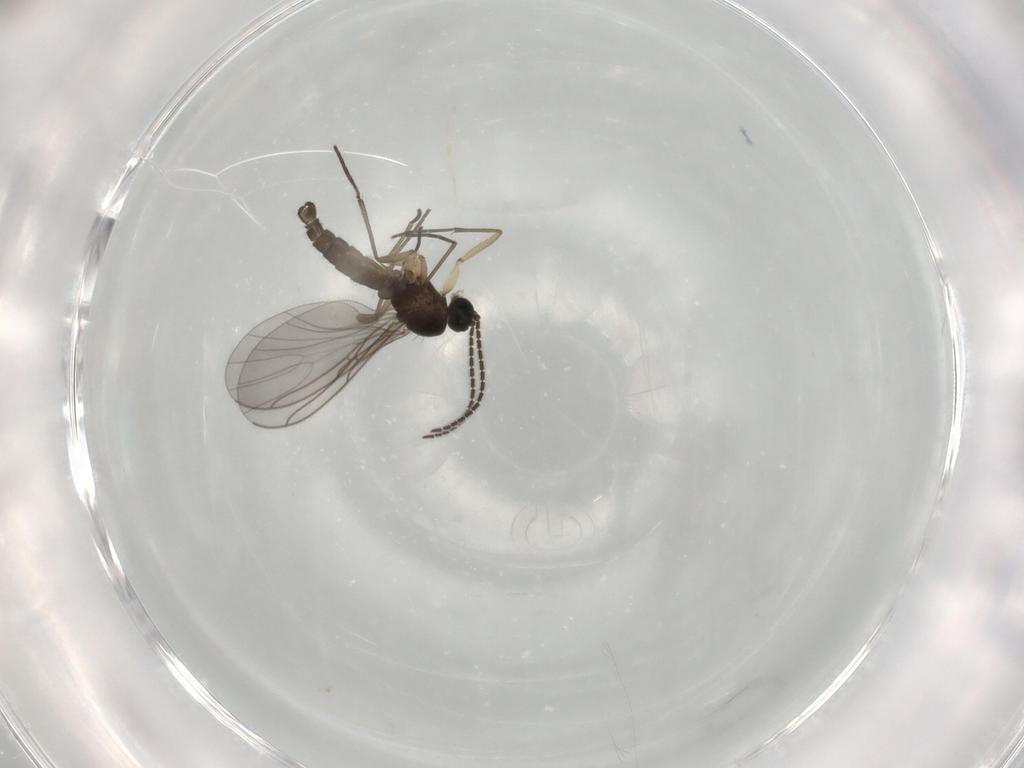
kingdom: Animalia
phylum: Arthropoda
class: Insecta
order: Diptera
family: Sciaridae
